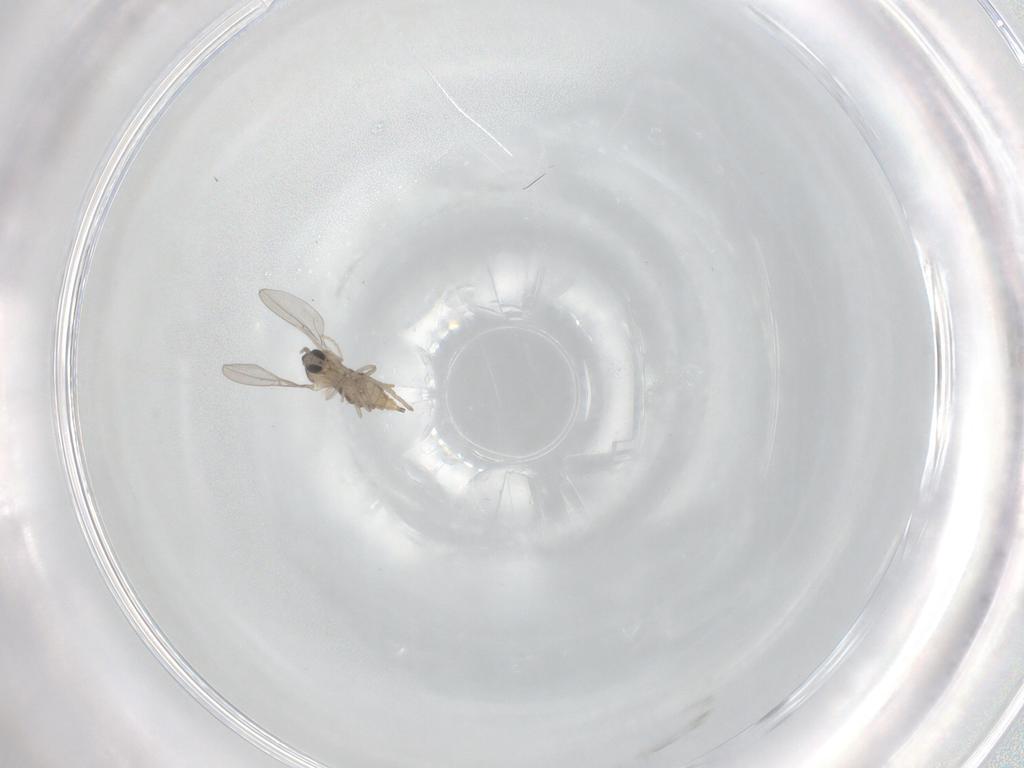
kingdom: Animalia
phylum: Arthropoda
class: Insecta
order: Diptera
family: Cecidomyiidae
